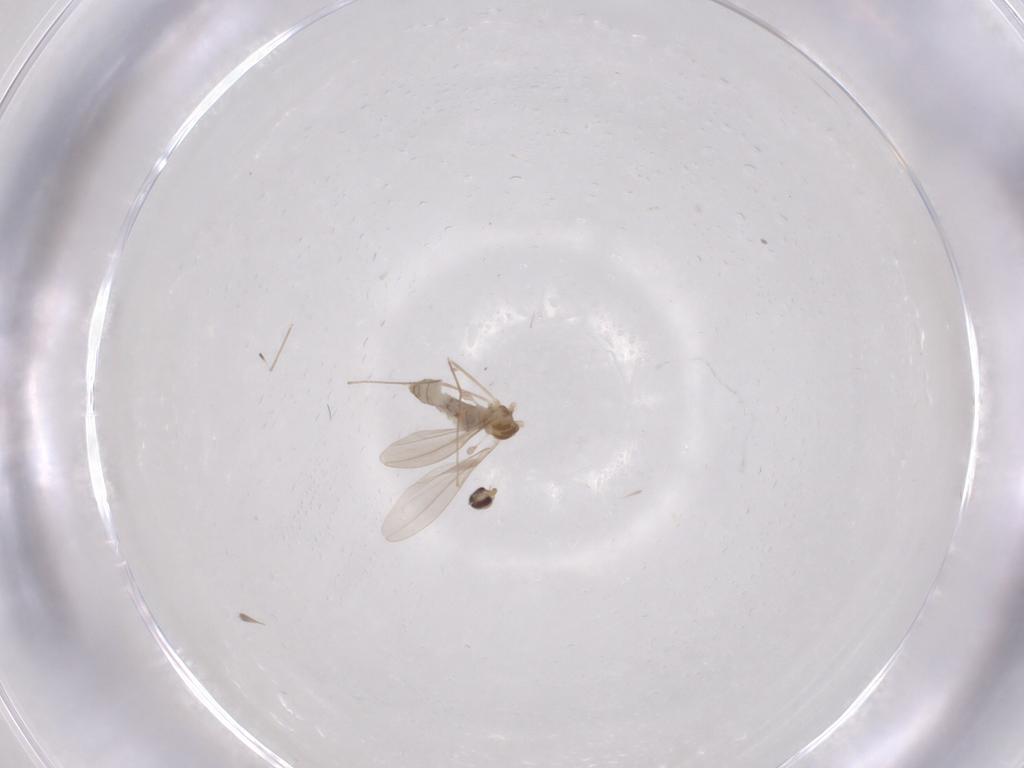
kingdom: Animalia
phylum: Arthropoda
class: Insecta
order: Diptera
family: Cecidomyiidae
